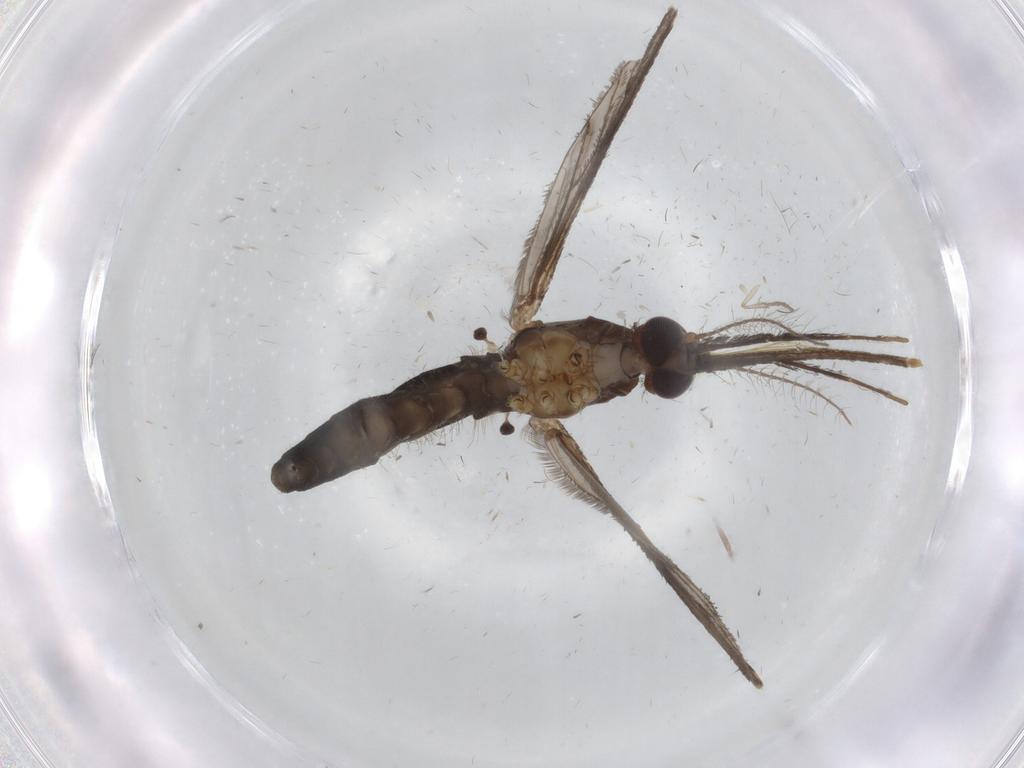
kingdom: Animalia
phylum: Arthropoda
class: Insecta
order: Diptera
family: Culicidae
